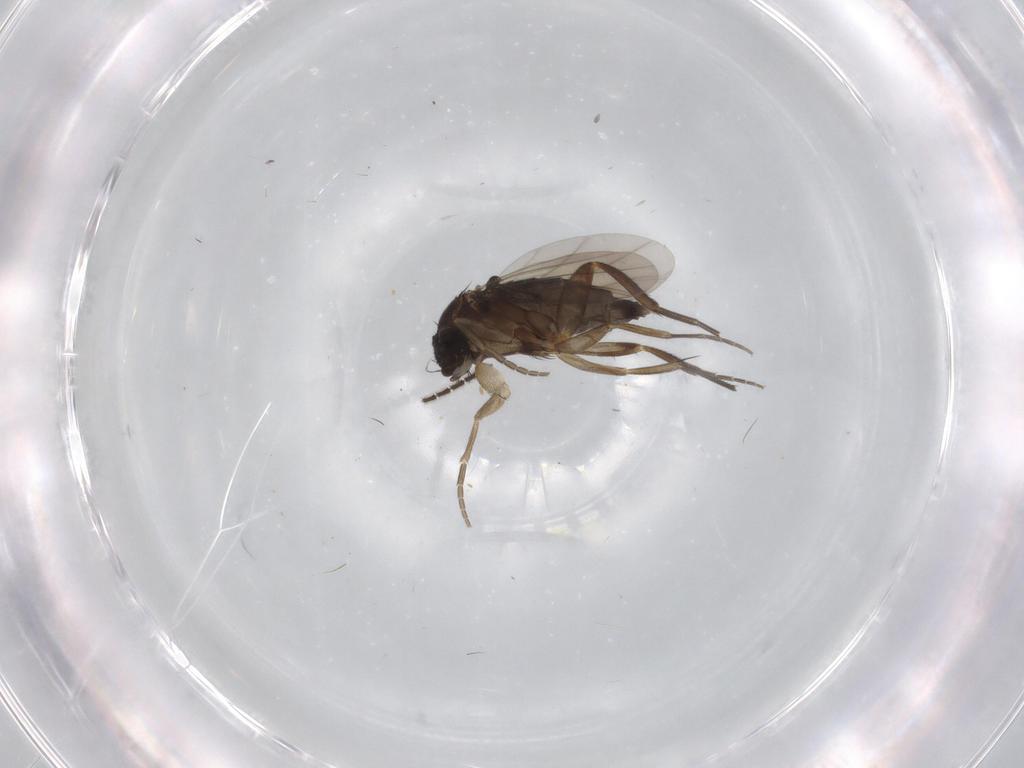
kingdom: Animalia
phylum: Arthropoda
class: Insecta
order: Diptera
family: Phoridae
